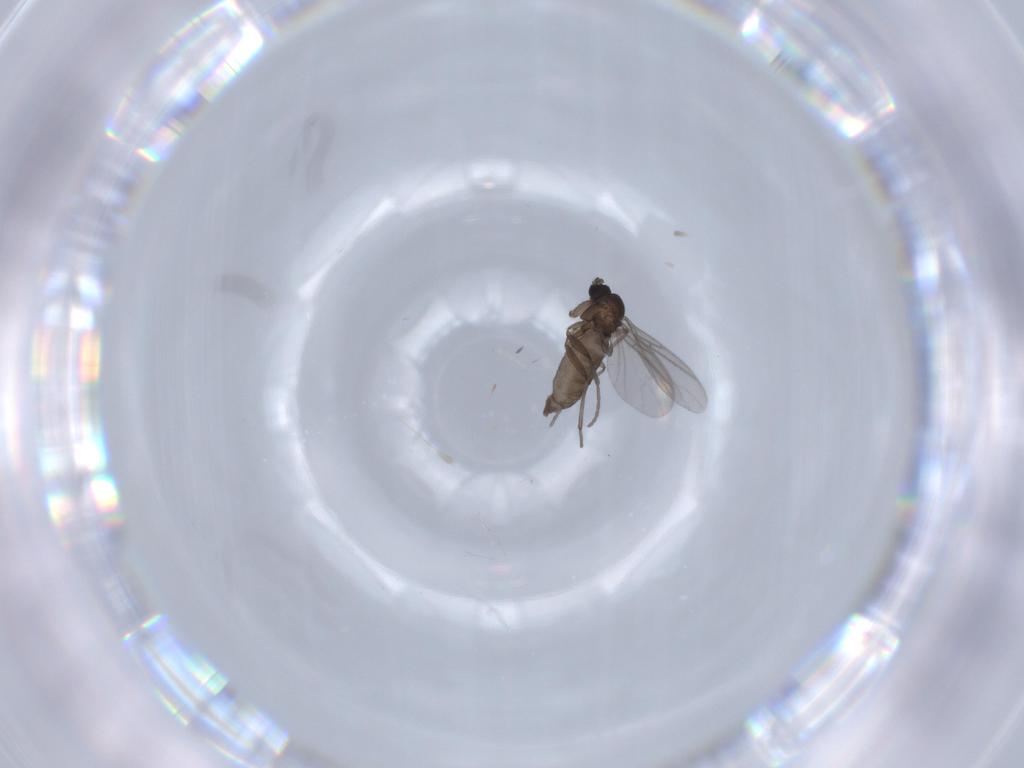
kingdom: Animalia
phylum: Arthropoda
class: Insecta
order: Diptera
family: Sciaridae
